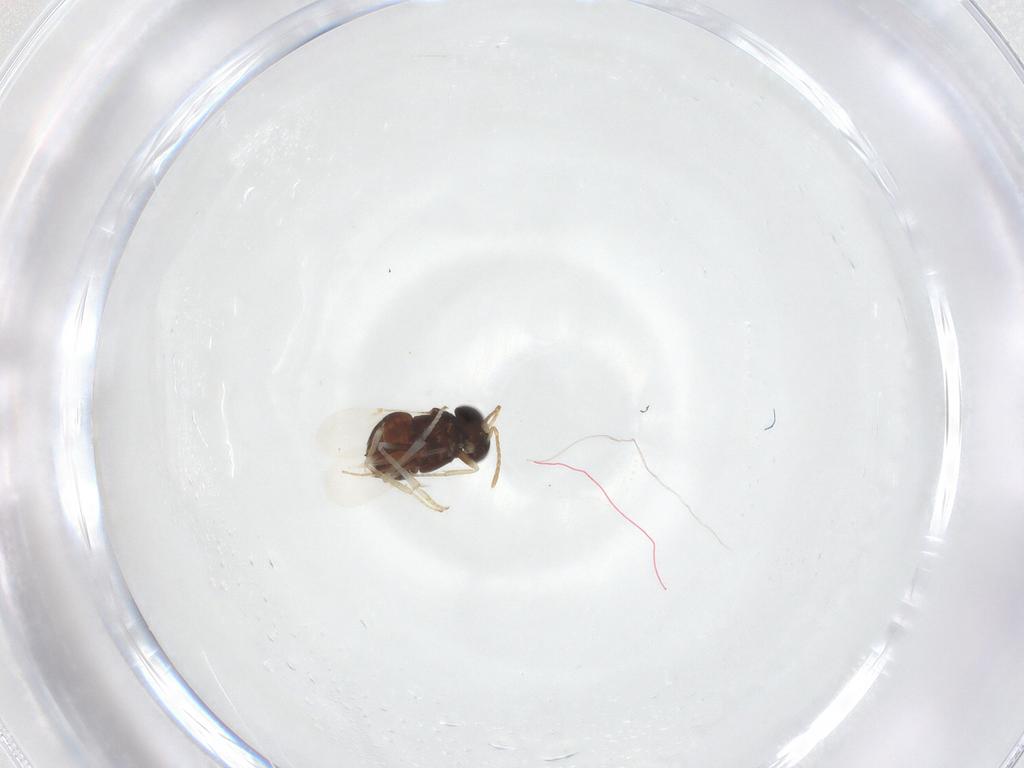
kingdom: Animalia
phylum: Arthropoda
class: Insecta
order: Hymenoptera
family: Encyrtidae
